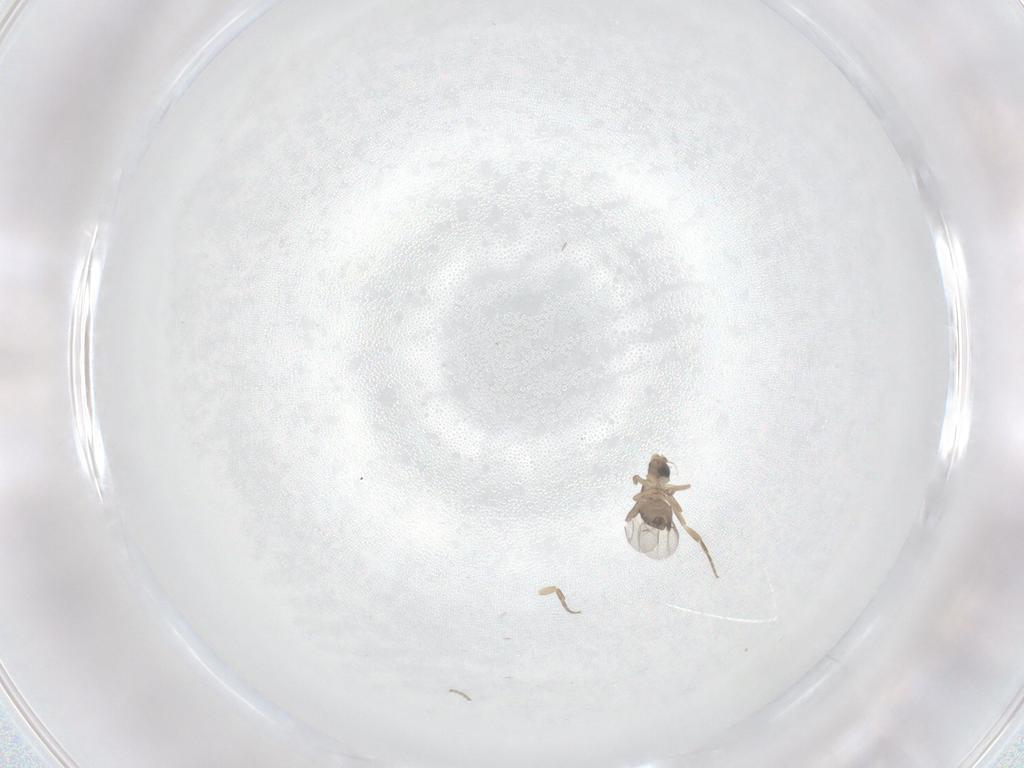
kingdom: Animalia
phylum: Arthropoda
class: Insecta
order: Diptera
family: Phoridae
